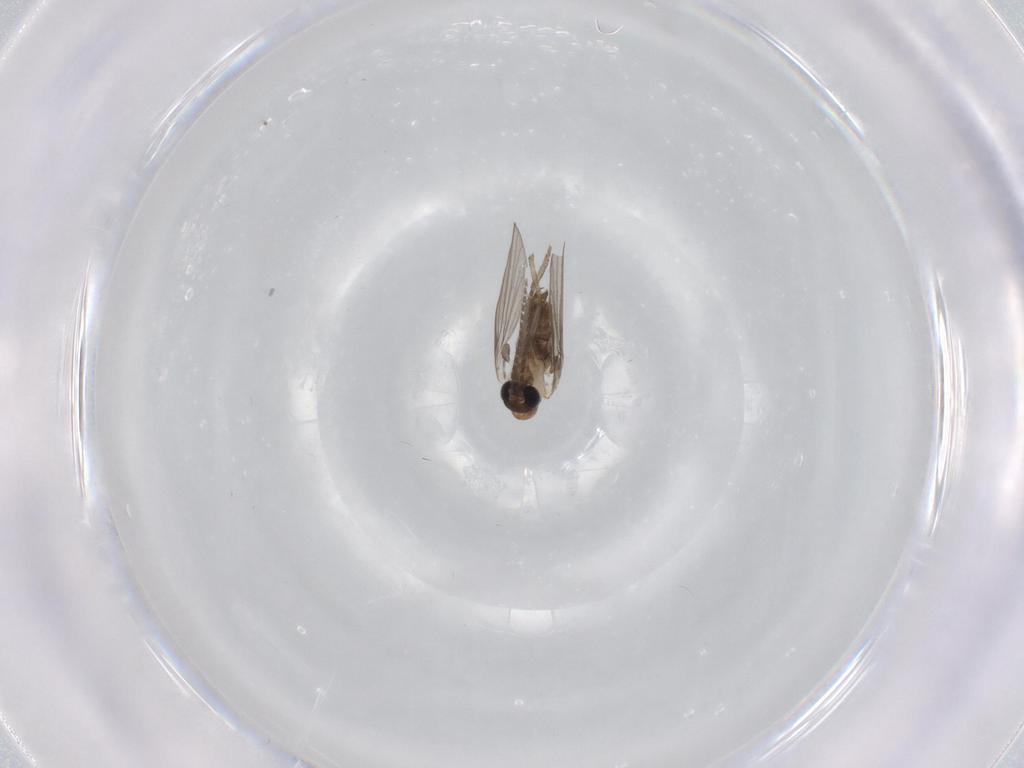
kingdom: Animalia
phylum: Arthropoda
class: Insecta
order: Diptera
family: Psychodidae
